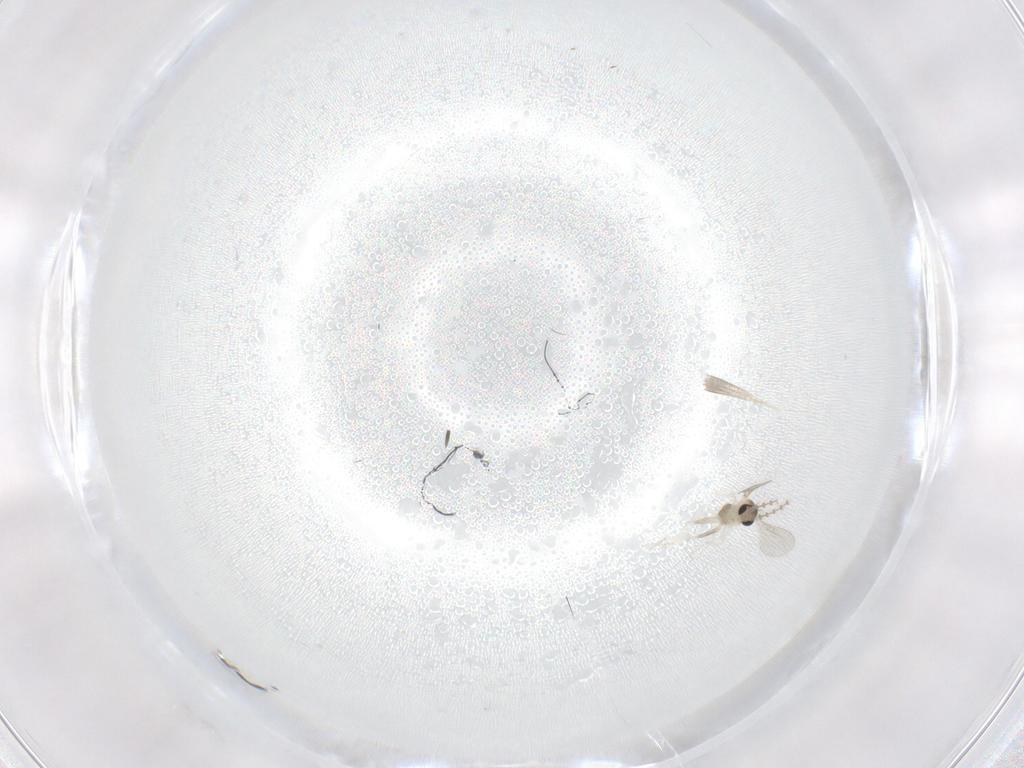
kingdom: Animalia
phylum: Arthropoda
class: Insecta
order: Diptera
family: Cecidomyiidae
